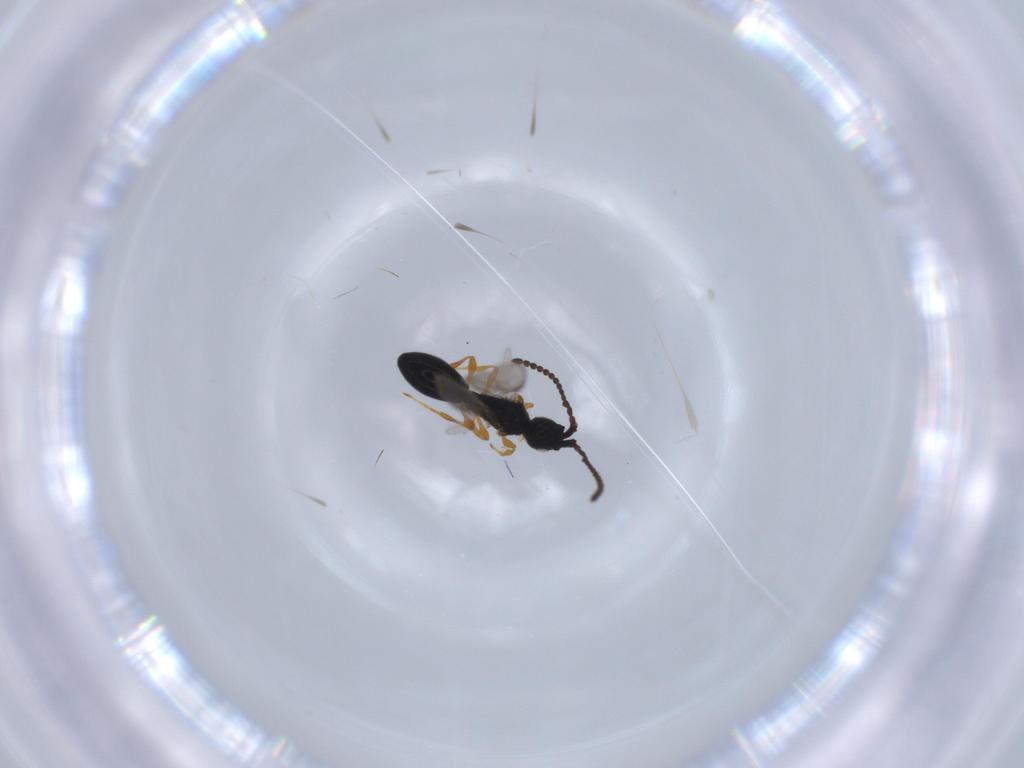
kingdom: Animalia
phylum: Arthropoda
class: Insecta
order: Hymenoptera
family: Diapriidae
